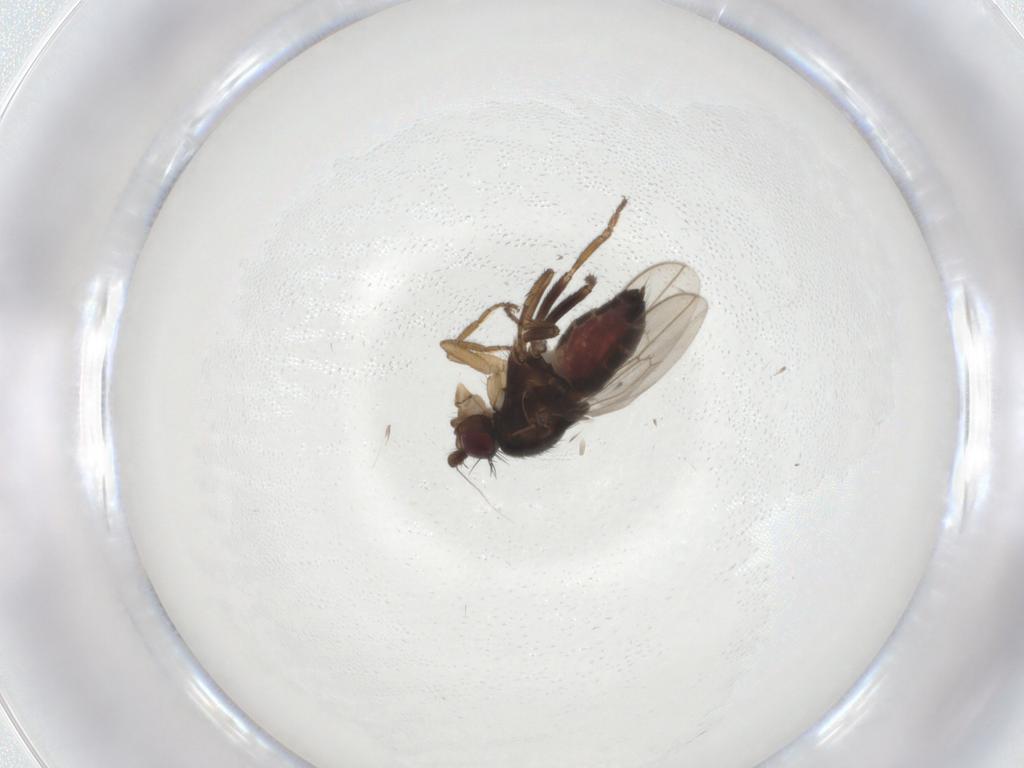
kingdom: Animalia
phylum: Arthropoda
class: Insecta
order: Diptera
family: Sphaeroceridae
